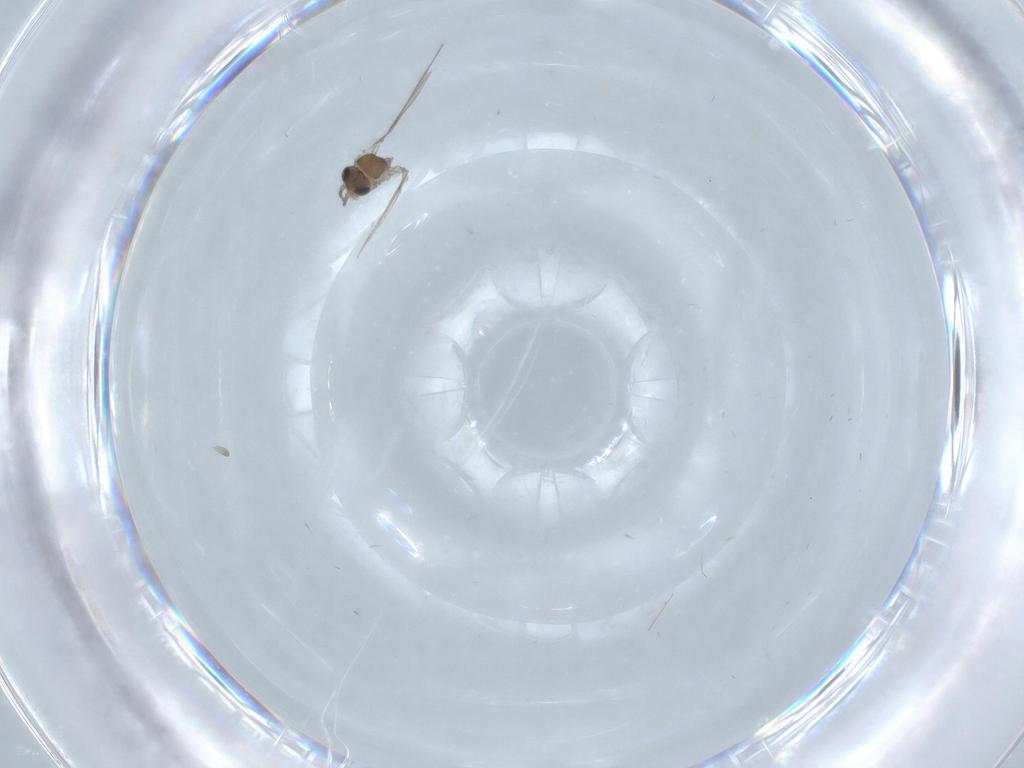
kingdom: Animalia
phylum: Arthropoda
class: Insecta
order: Diptera
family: Psychodidae
